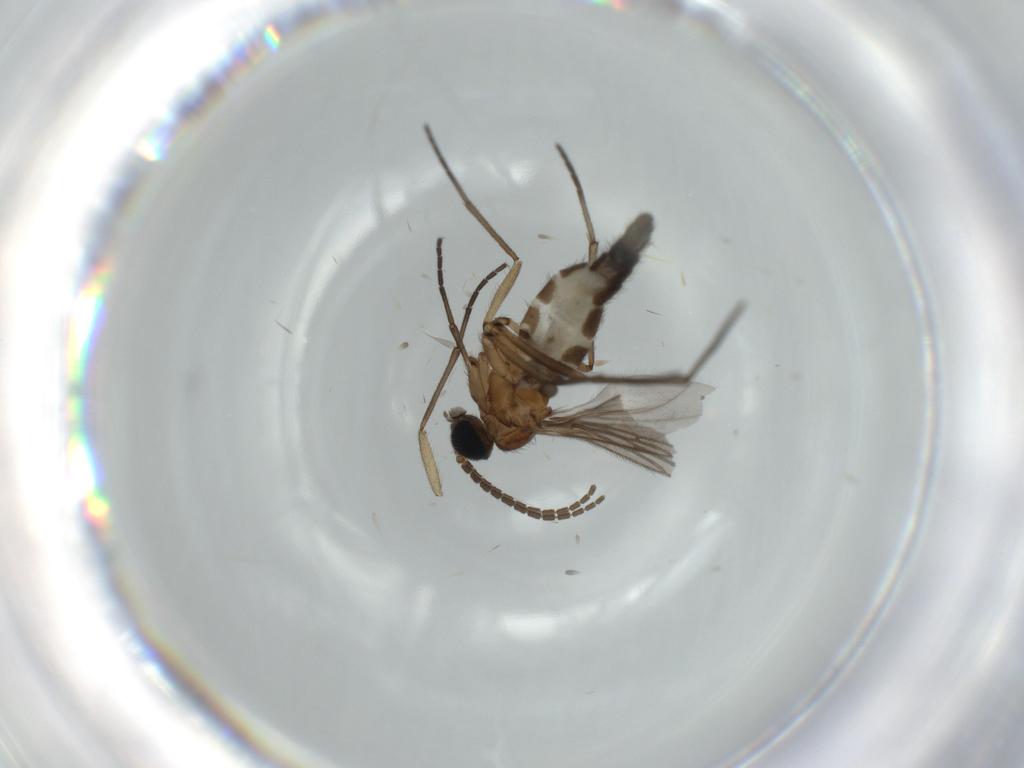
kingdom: Animalia
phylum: Arthropoda
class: Insecta
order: Diptera
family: Sciaridae
